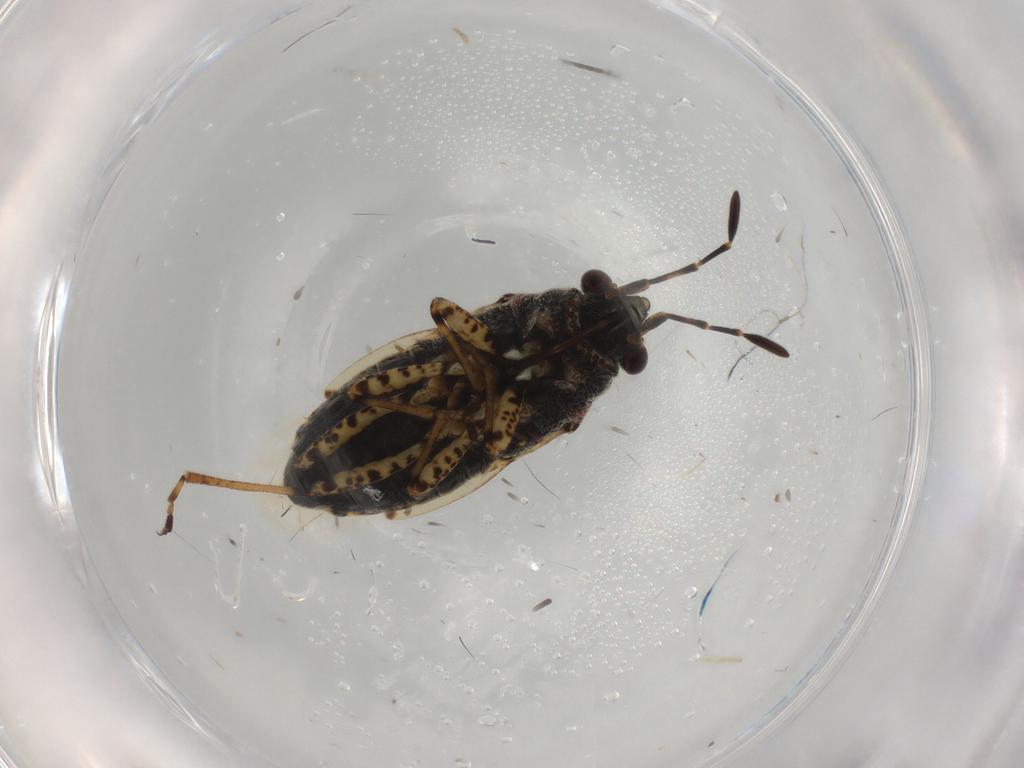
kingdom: Animalia
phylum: Arthropoda
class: Insecta
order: Hemiptera
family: Lygaeidae
